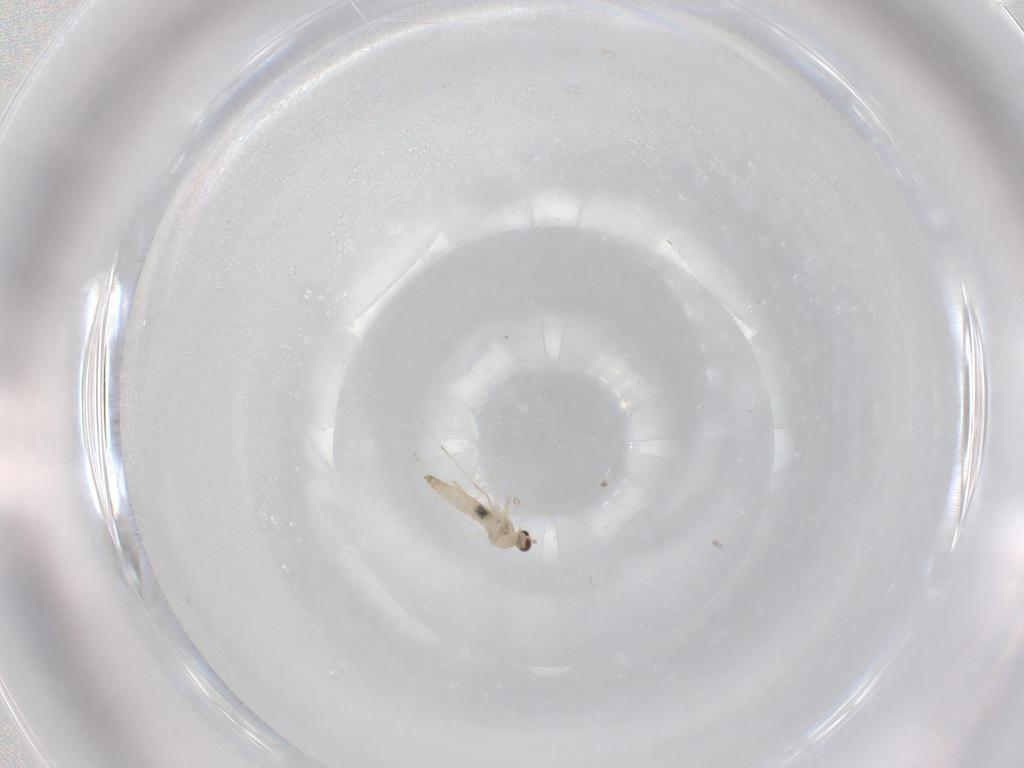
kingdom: Animalia
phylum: Arthropoda
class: Insecta
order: Diptera
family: Cecidomyiidae
